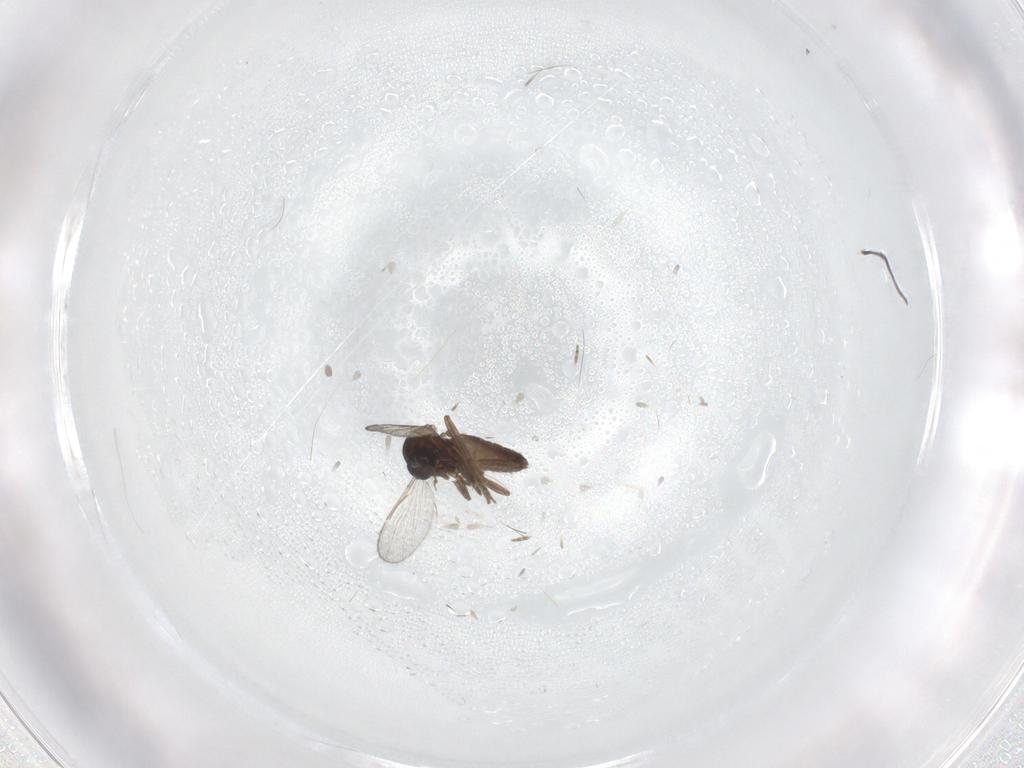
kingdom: Animalia
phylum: Arthropoda
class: Insecta
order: Diptera
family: Ceratopogonidae
